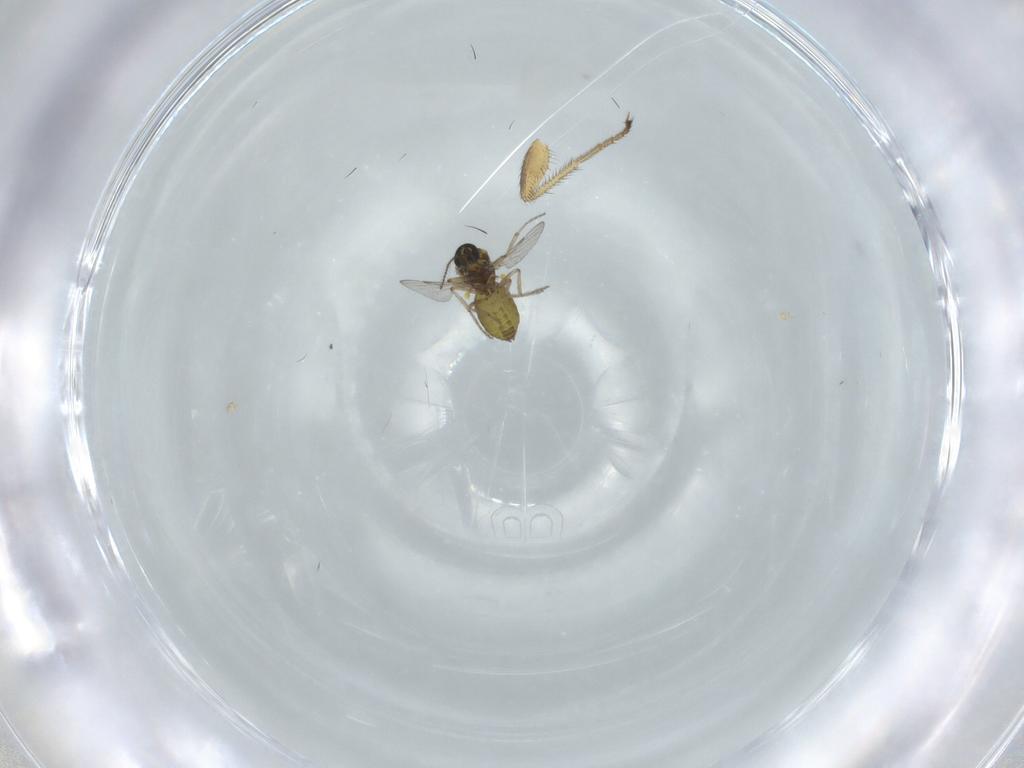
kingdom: Animalia
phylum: Arthropoda
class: Insecta
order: Diptera
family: Ceratopogonidae
